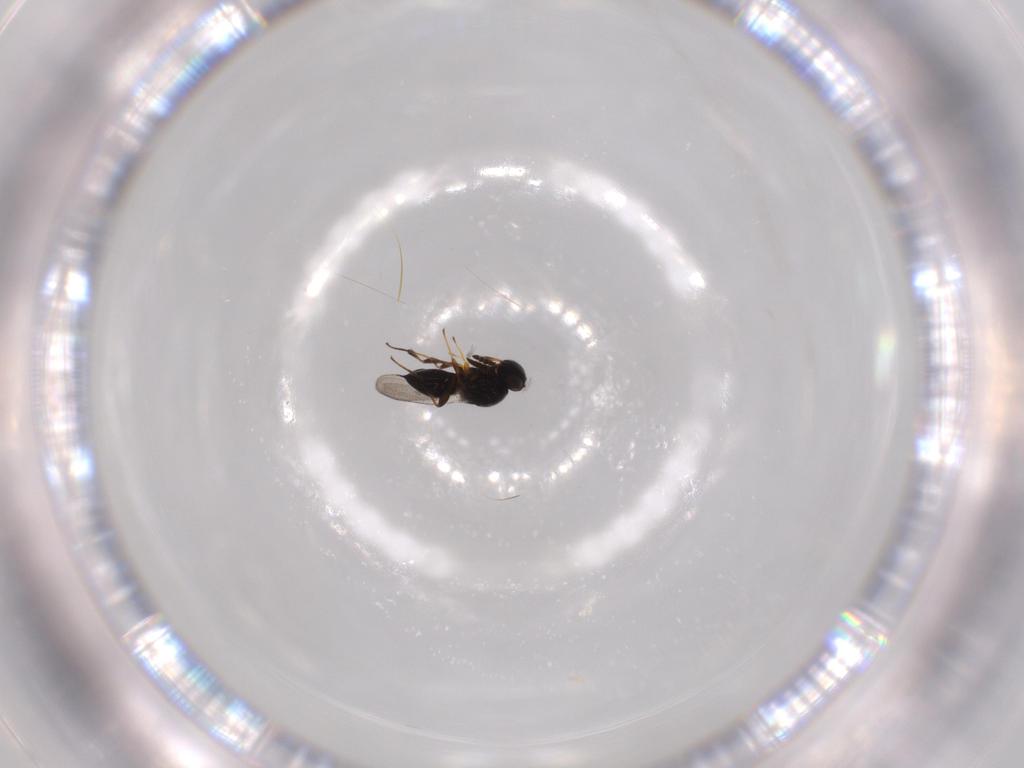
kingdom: Animalia
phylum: Arthropoda
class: Insecta
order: Hymenoptera
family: Platygastridae
